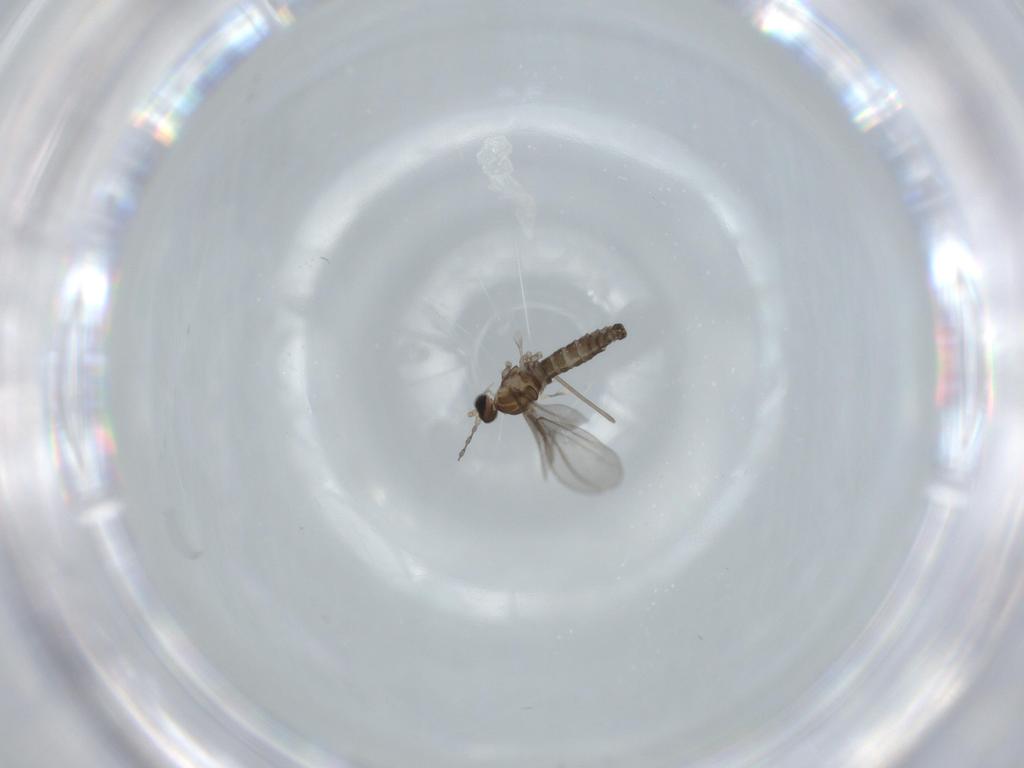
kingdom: Animalia
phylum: Arthropoda
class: Insecta
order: Diptera
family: Cecidomyiidae
